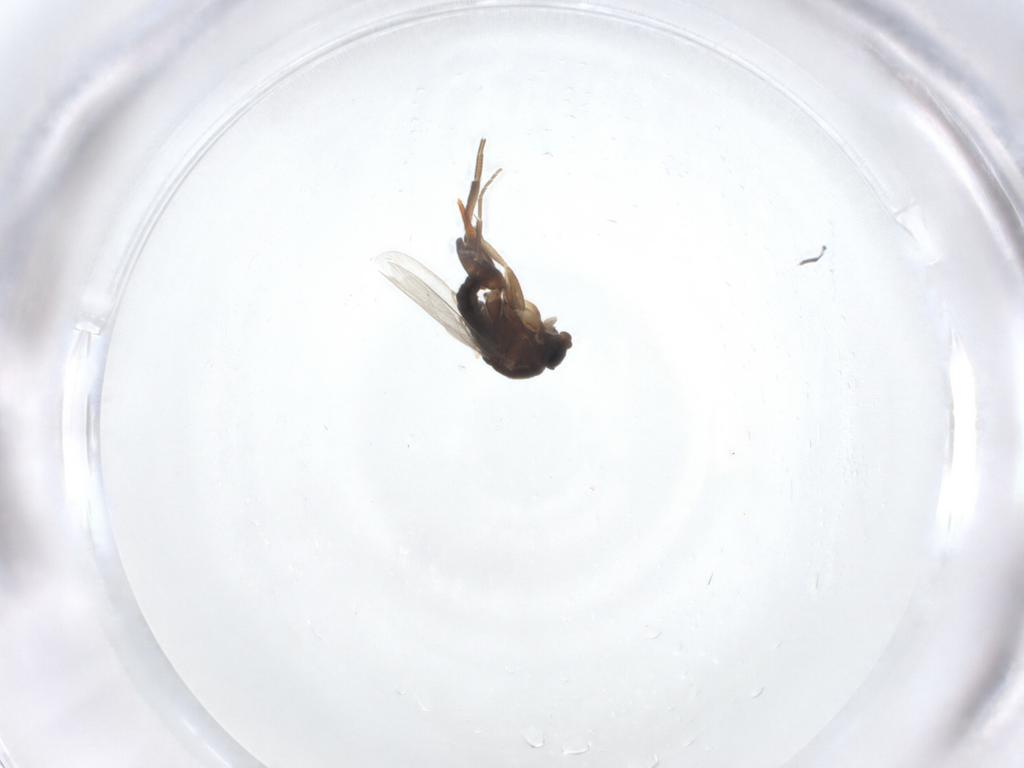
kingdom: Animalia
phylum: Arthropoda
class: Insecta
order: Diptera
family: Phoridae
